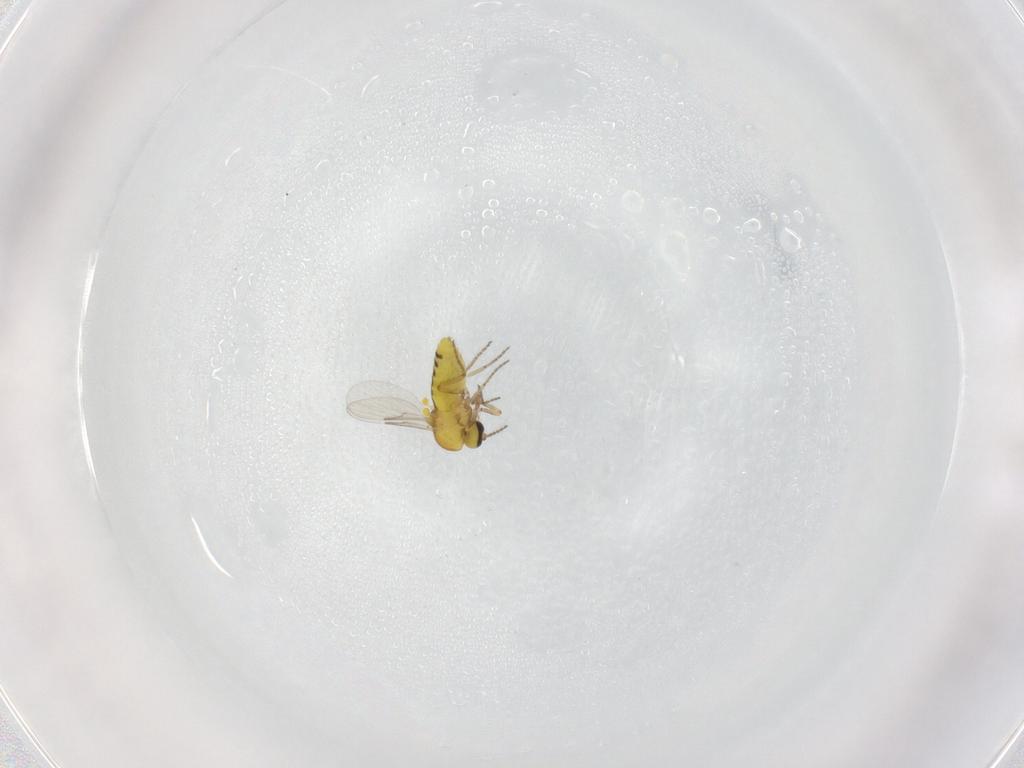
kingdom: Animalia
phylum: Arthropoda
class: Insecta
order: Diptera
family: Ceratopogonidae
